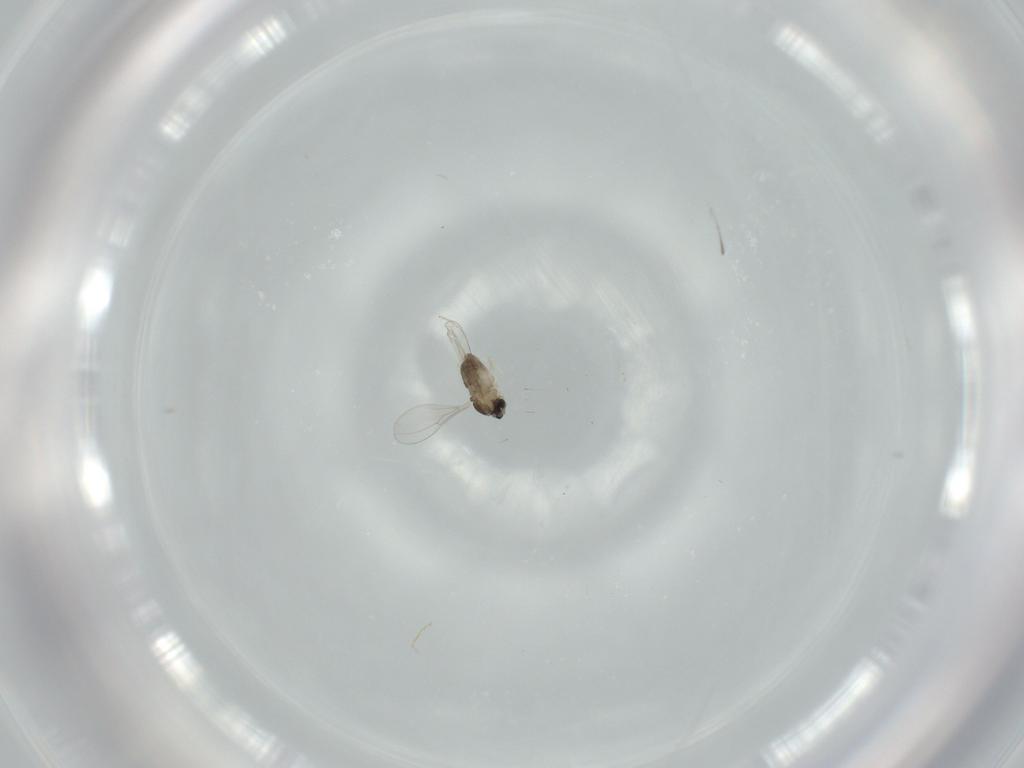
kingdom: Animalia
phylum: Arthropoda
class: Insecta
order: Diptera
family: Cecidomyiidae
